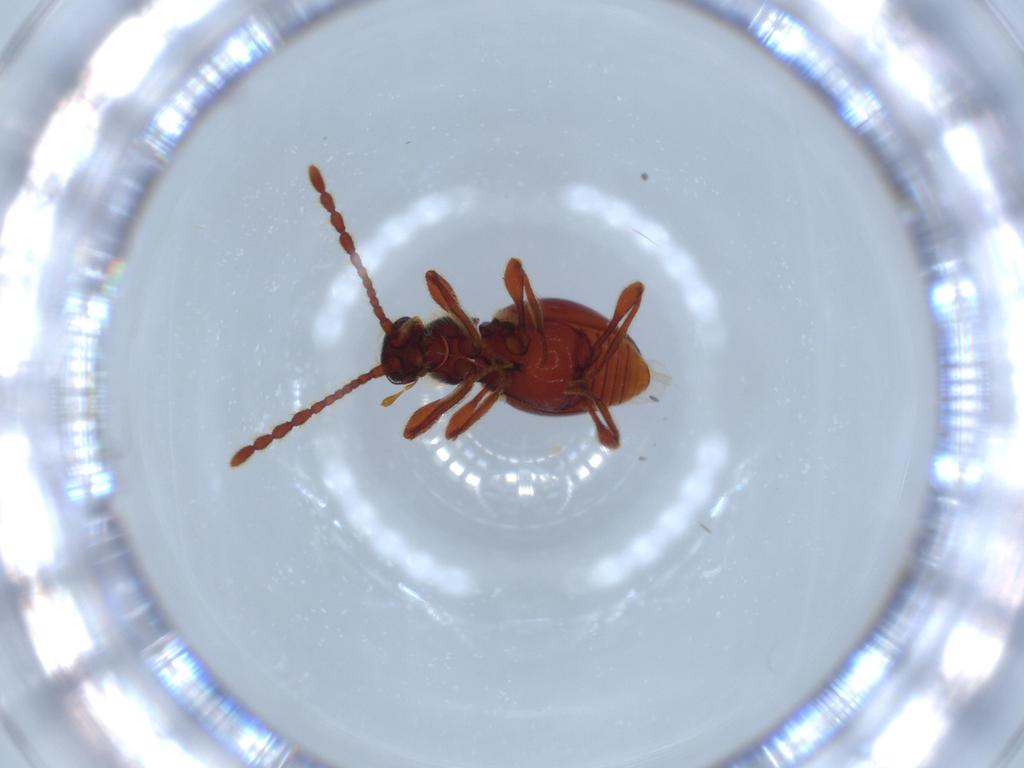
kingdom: Animalia
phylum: Arthropoda
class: Insecta
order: Coleoptera
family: Staphylinidae
